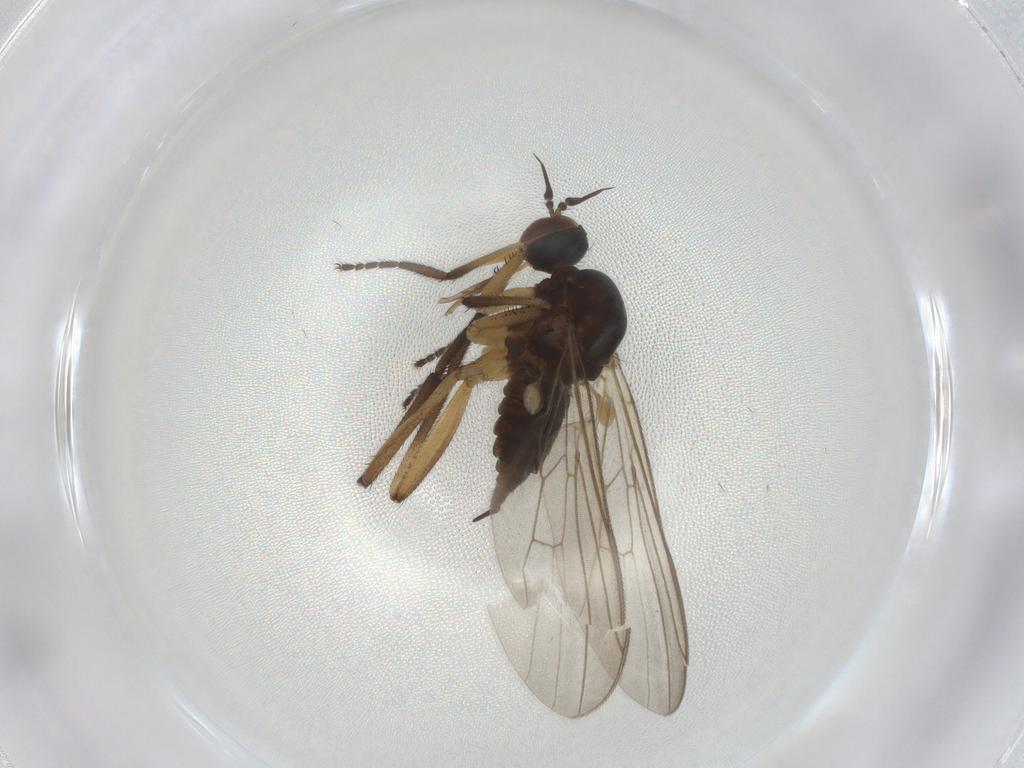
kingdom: Animalia
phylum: Arthropoda
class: Insecta
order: Diptera
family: Empididae
